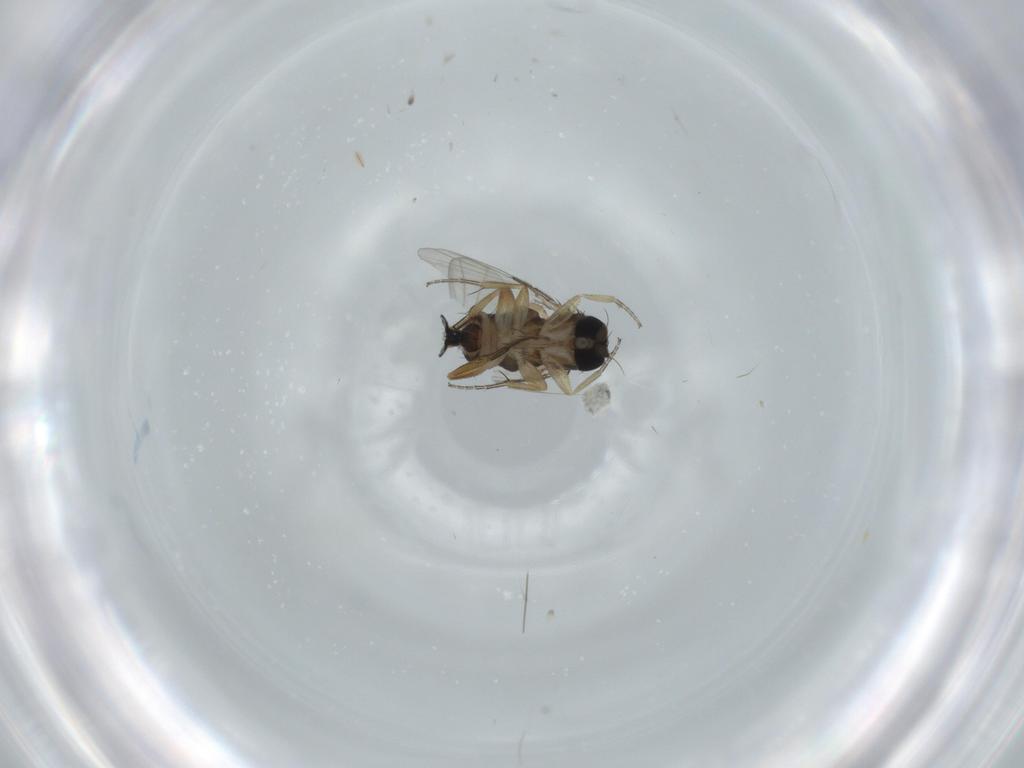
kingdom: Animalia
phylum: Arthropoda
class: Insecta
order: Diptera
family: Phoridae
